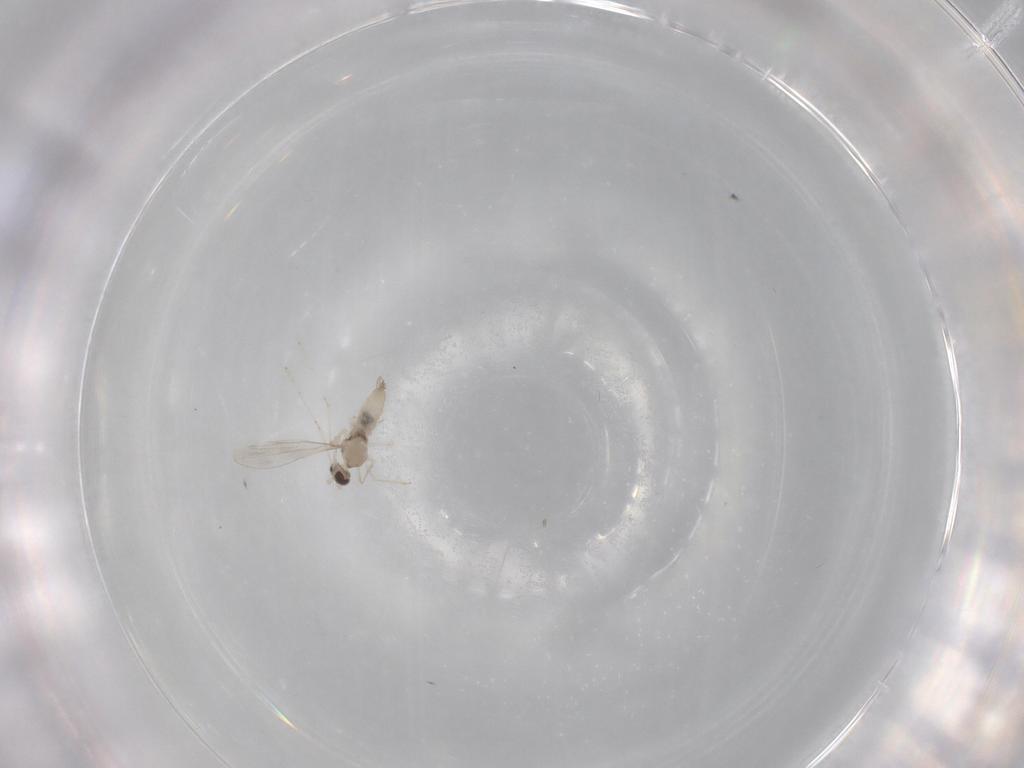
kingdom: Animalia
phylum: Arthropoda
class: Insecta
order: Diptera
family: Cecidomyiidae
